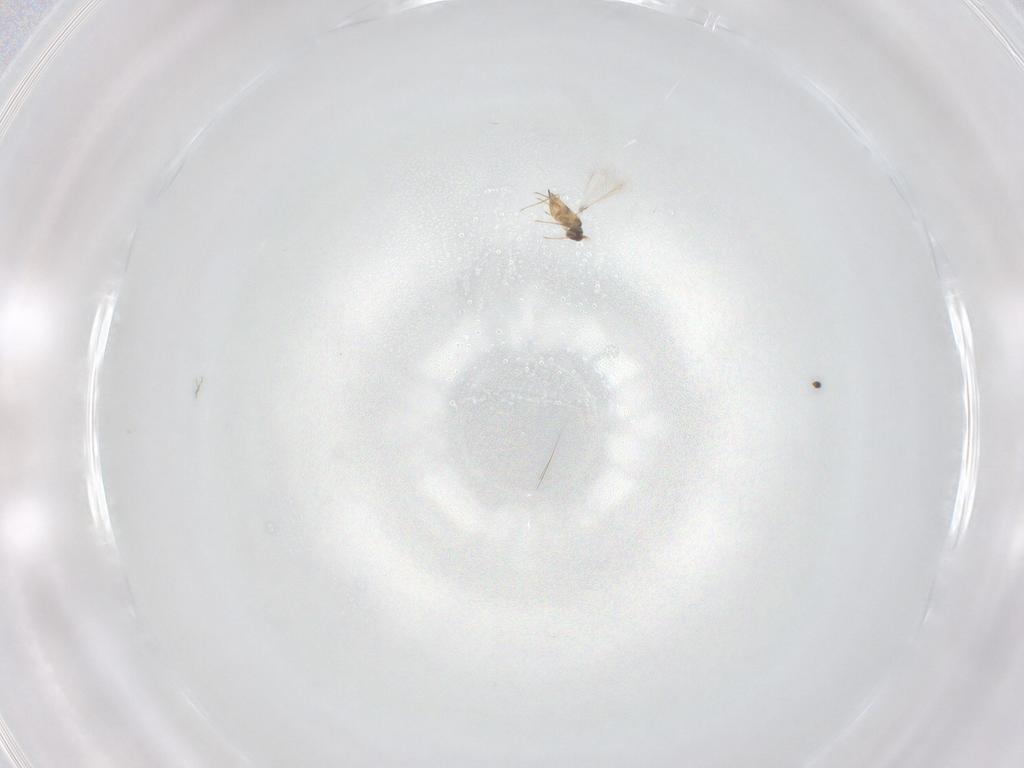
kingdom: Animalia
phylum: Arthropoda
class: Insecta
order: Hymenoptera
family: Mymaridae
